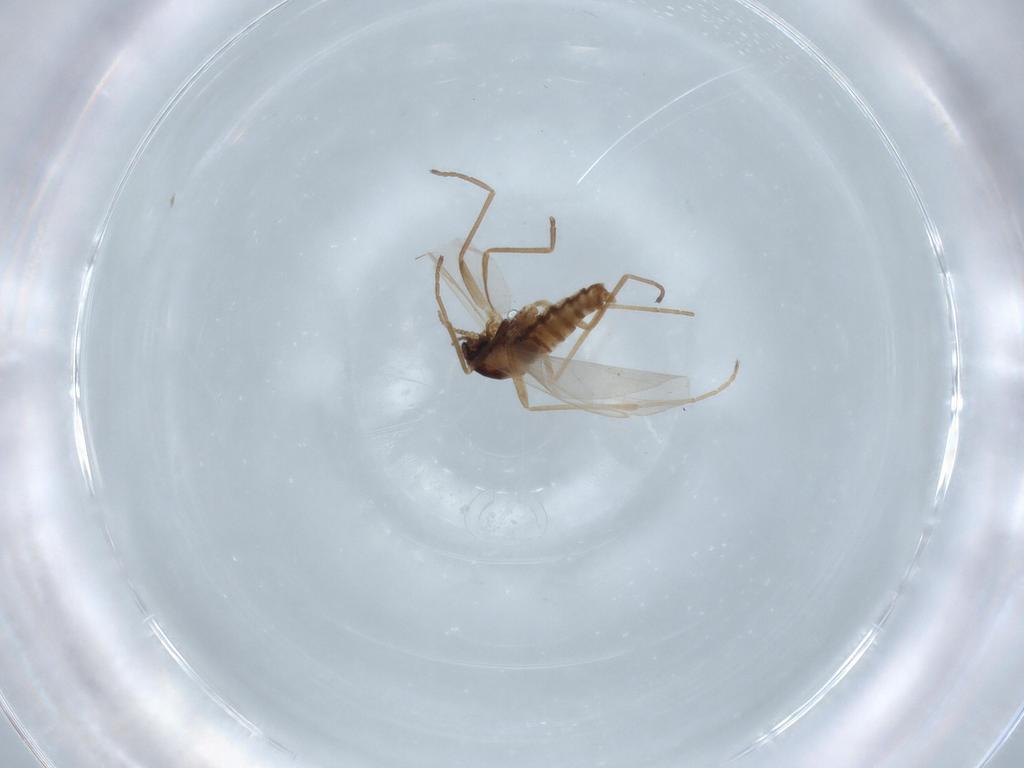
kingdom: Animalia
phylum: Arthropoda
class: Insecta
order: Diptera
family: Cecidomyiidae
